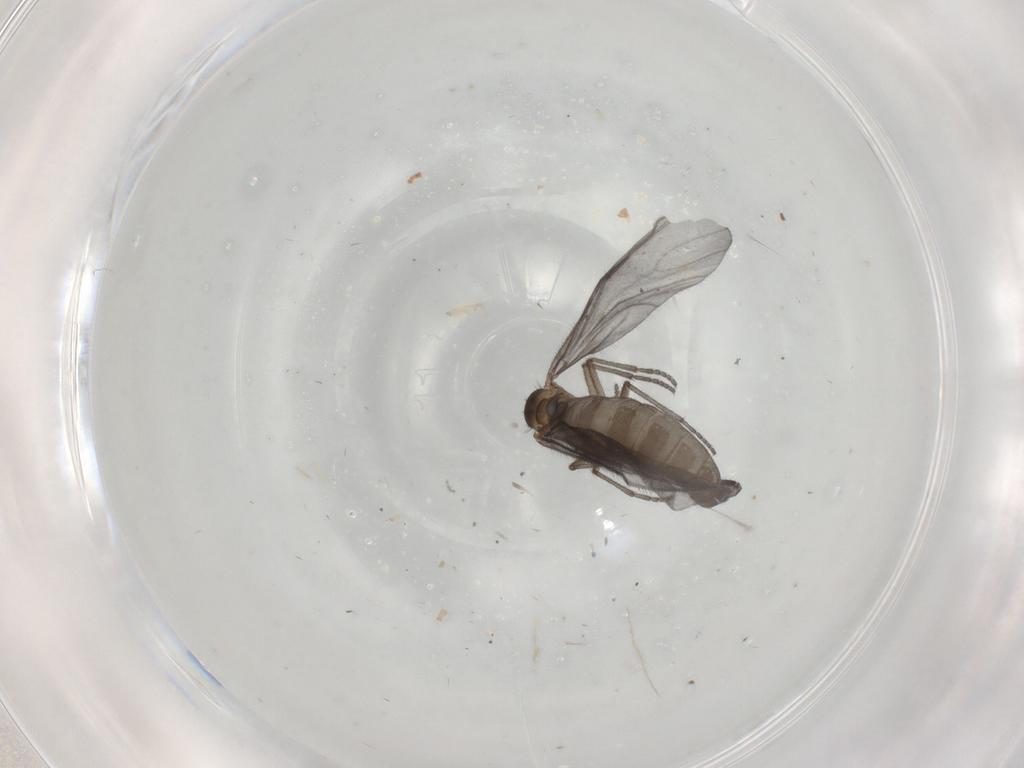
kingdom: Animalia
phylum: Arthropoda
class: Insecta
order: Diptera
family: Sciaridae
